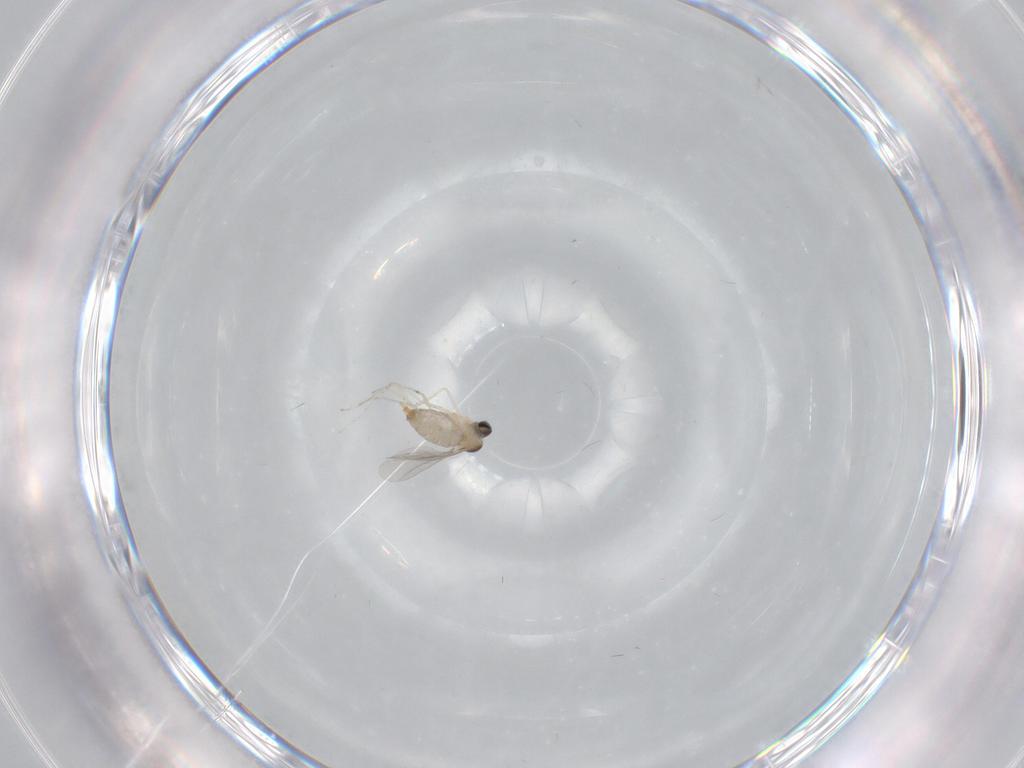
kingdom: Animalia
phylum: Arthropoda
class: Insecta
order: Diptera
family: Cecidomyiidae
